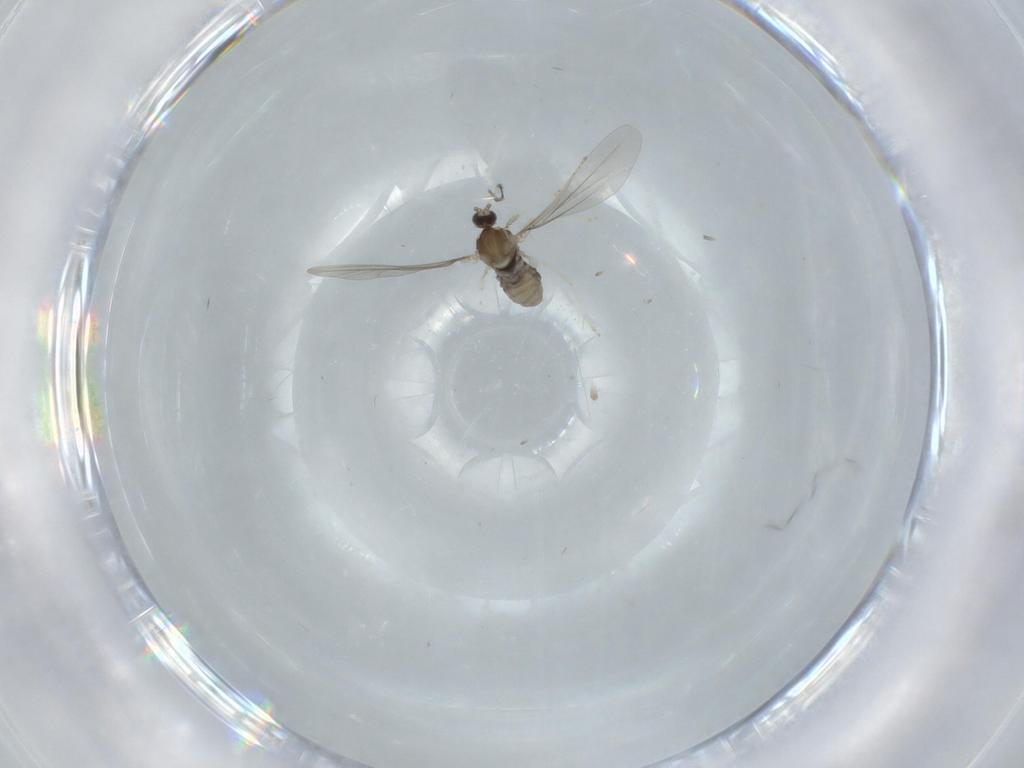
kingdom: Animalia
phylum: Arthropoda
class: Insecta
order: Diptera
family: Cecidomyiidae
